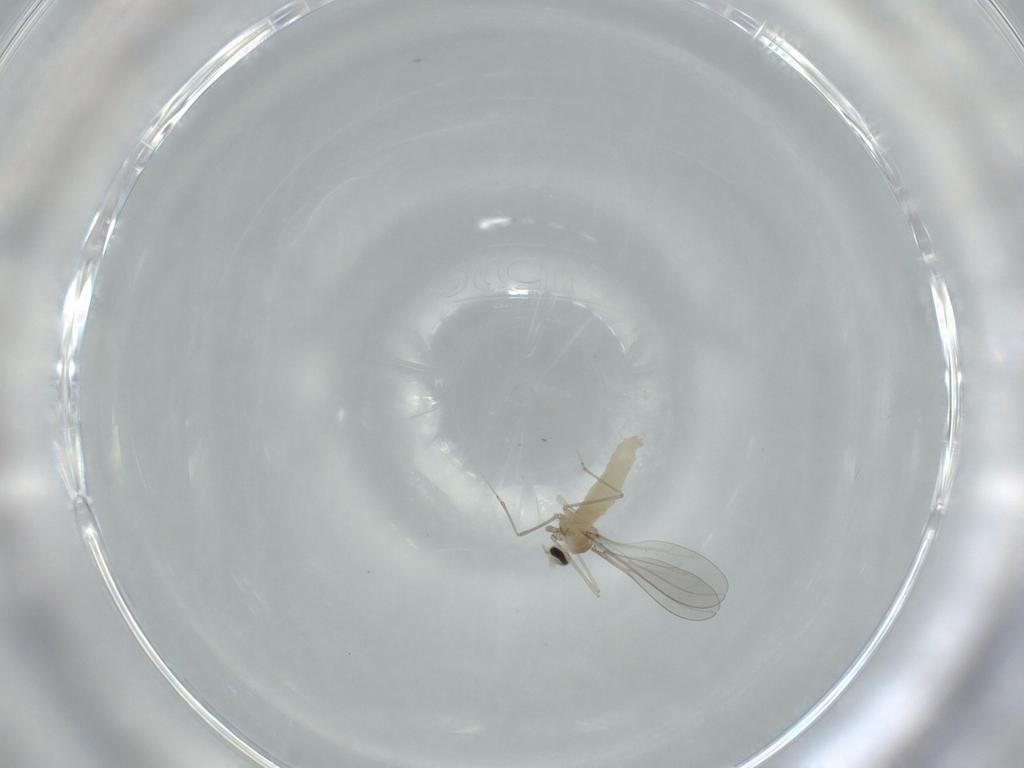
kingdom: Animalia
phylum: Arthropoda
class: Insecta
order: Diptera
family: Cecidomyiidae
